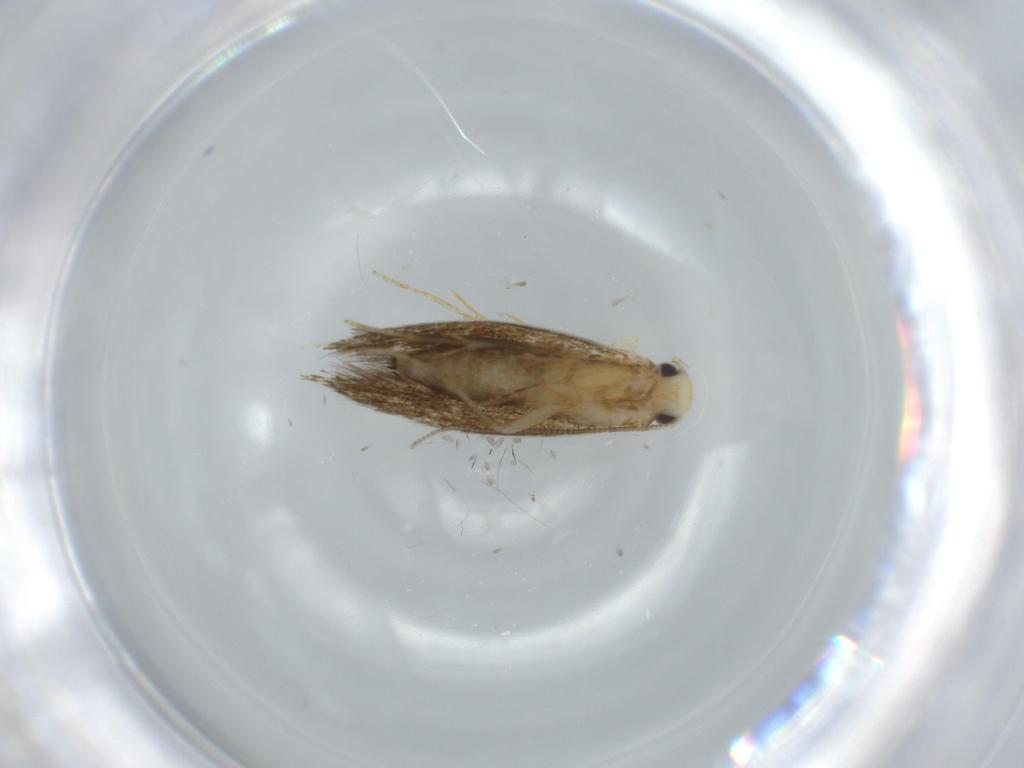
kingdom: Animalia
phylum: Arthropoda
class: Insecta
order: Lepidoptera
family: Tineidae
